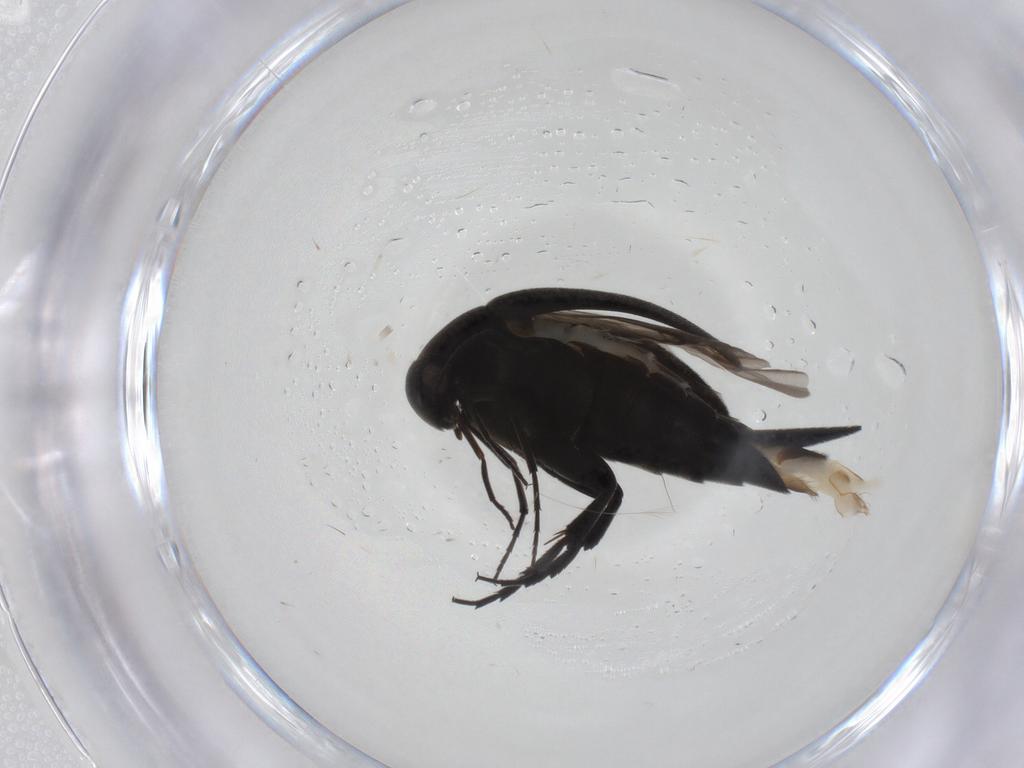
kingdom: Animalia
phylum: Arthropoda
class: Insecta
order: Coleoptera
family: Mordellidae
